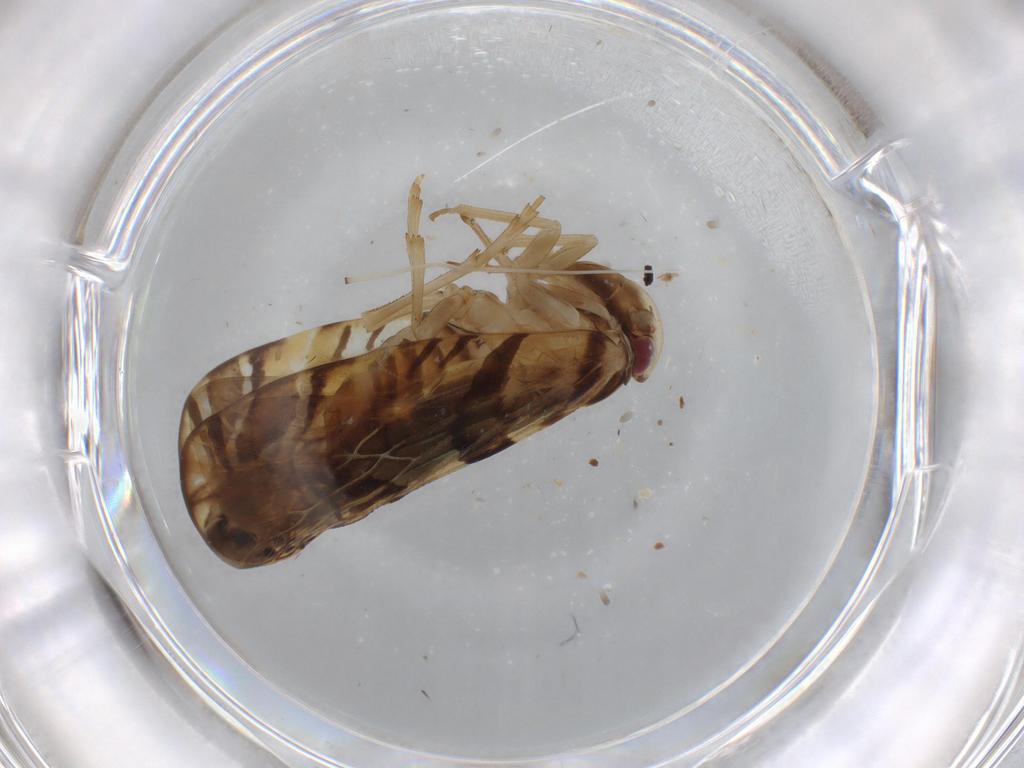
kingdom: Animalia
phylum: Arthropoda
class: Insecta
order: Hemiptera
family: Cixiidae
